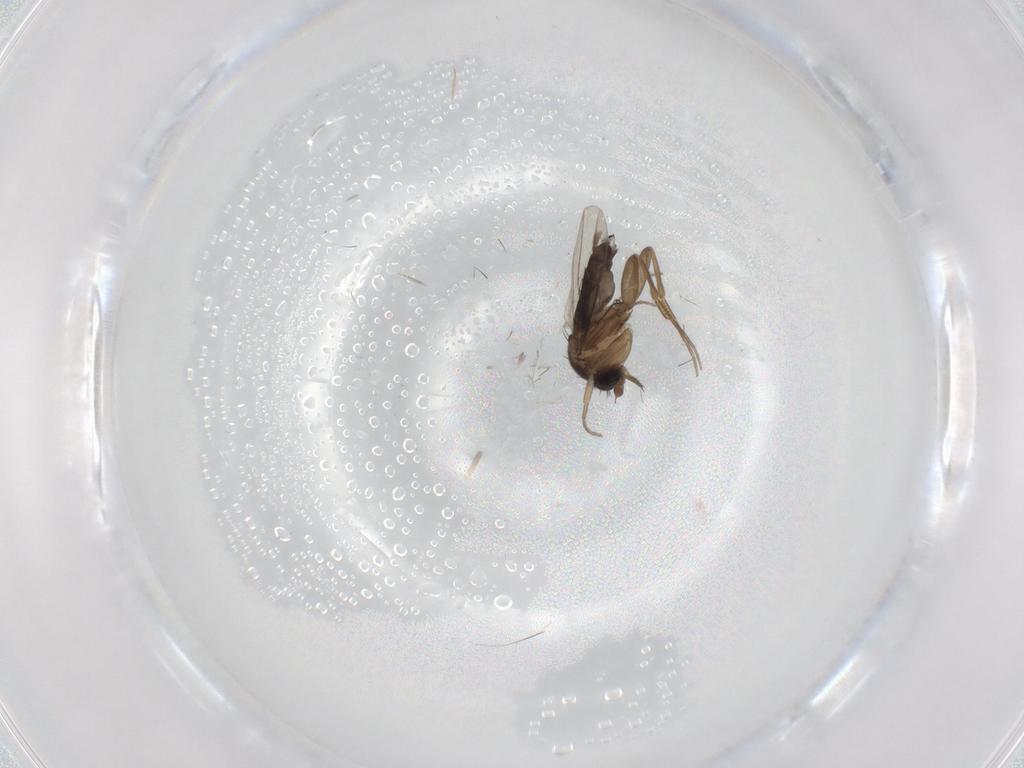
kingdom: Animalia
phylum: Arthropoda
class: Insecta
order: Diptera
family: Phoridae
